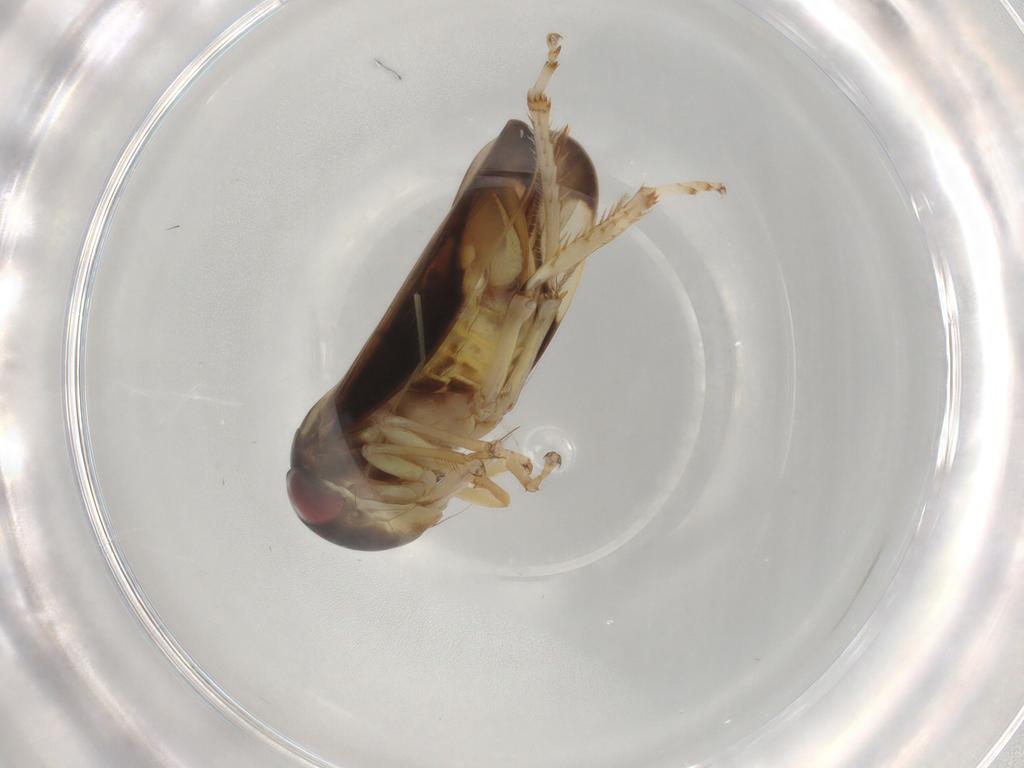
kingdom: Animalia
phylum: Arthropoda
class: Insecta
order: Hemiptera
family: Cicadellidae
